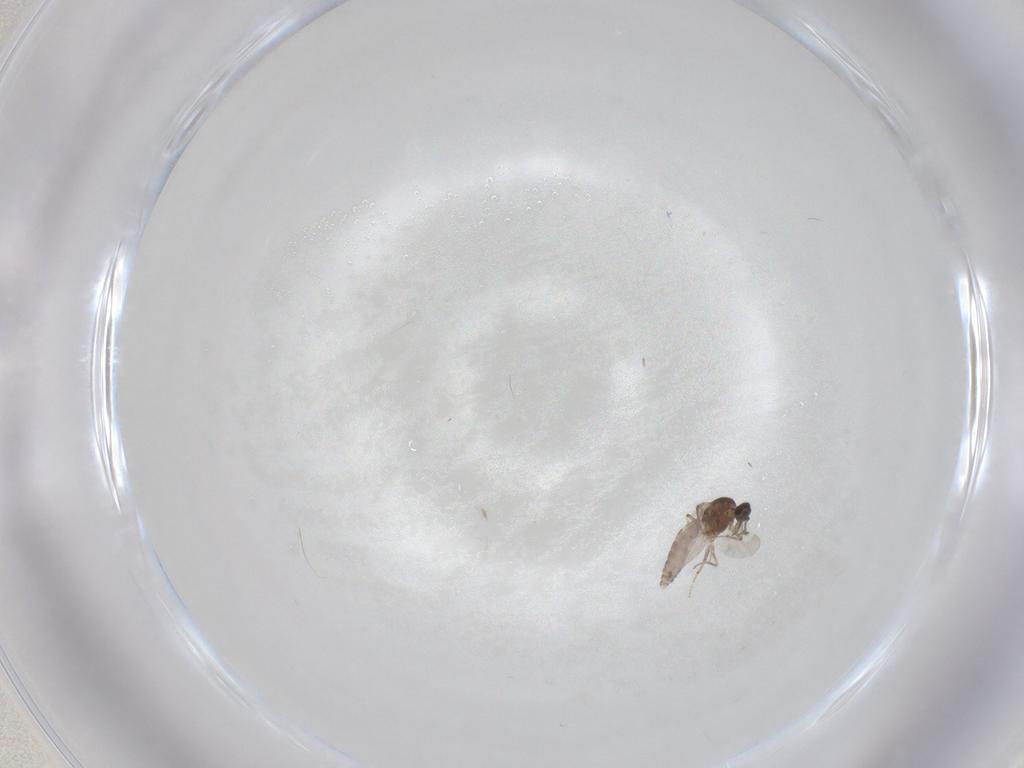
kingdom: Animalia
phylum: Arthropoda
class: Insecta
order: Diptera
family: Chironomidae
